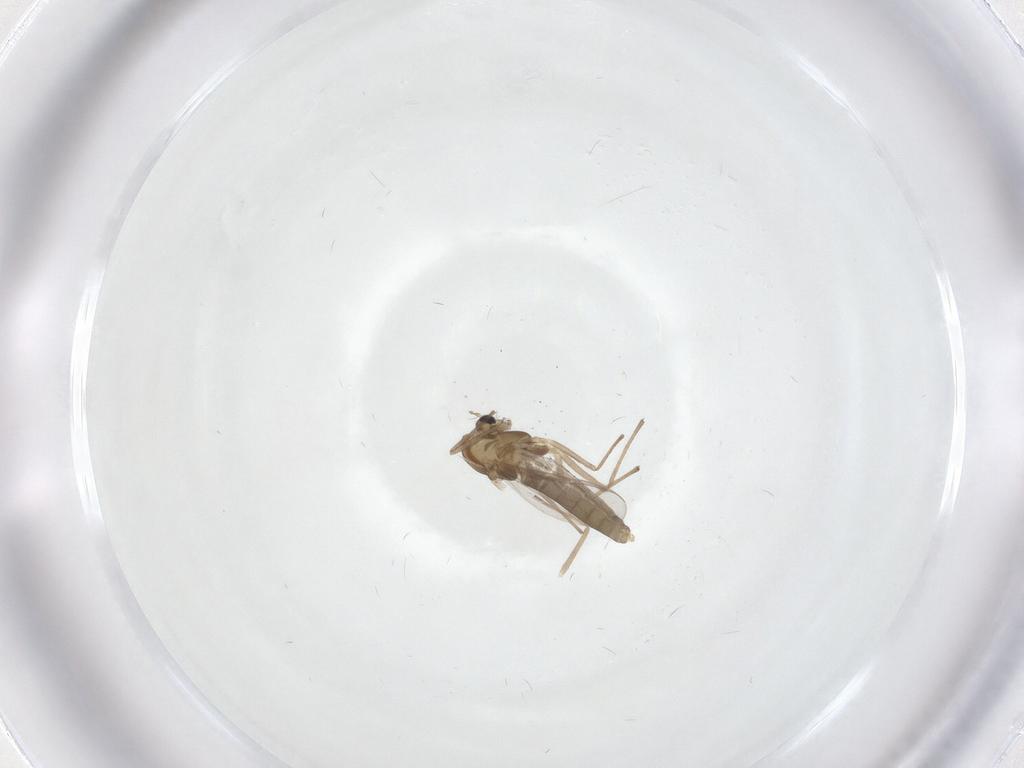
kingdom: Animalia
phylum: Arthropoda
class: Insecta
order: Diptera
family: Chironomidae
